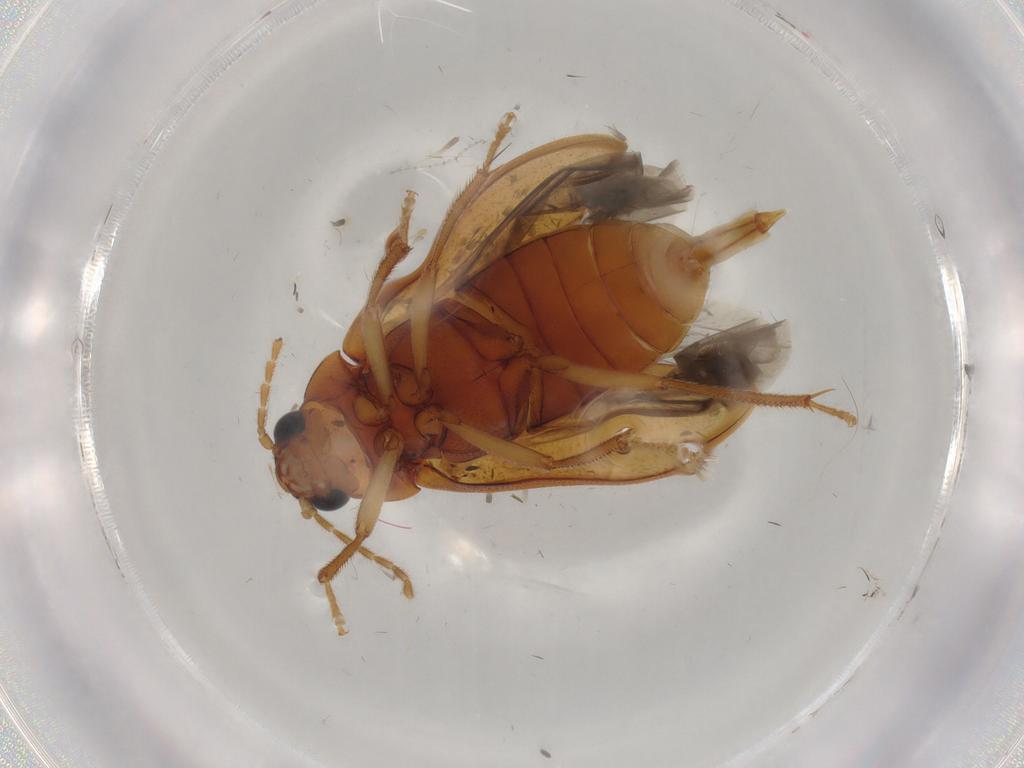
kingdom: Animalia
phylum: Arthropoda
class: Insecta
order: Coleoptera
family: Ptilodactylidae
